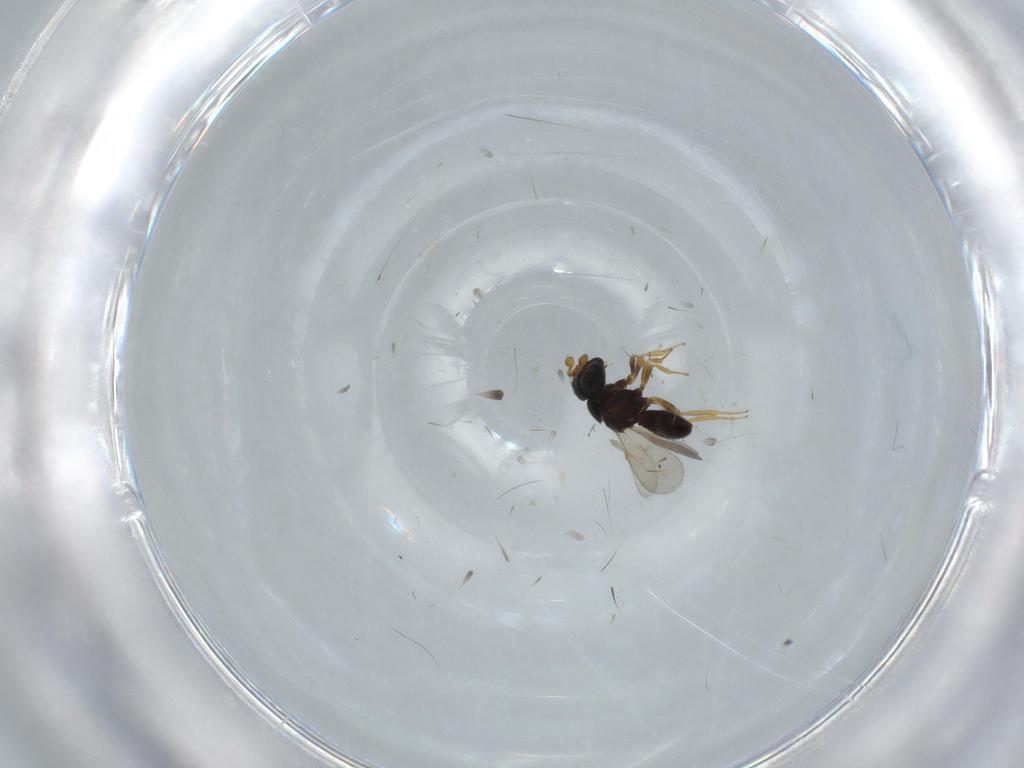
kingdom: Animalia
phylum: Arthropoda
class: Insecta
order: Hymenoptera
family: Scelionidae
